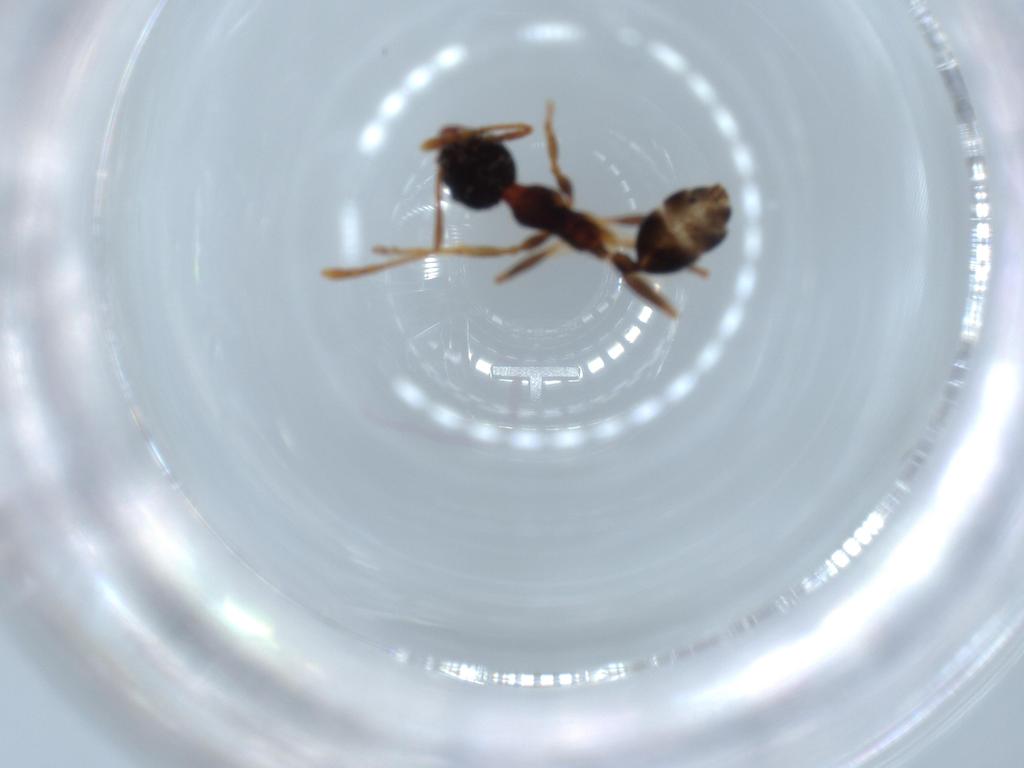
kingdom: Animalia
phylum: Arthropoda
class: Insecta
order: Hymenoptera
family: Formicidae
